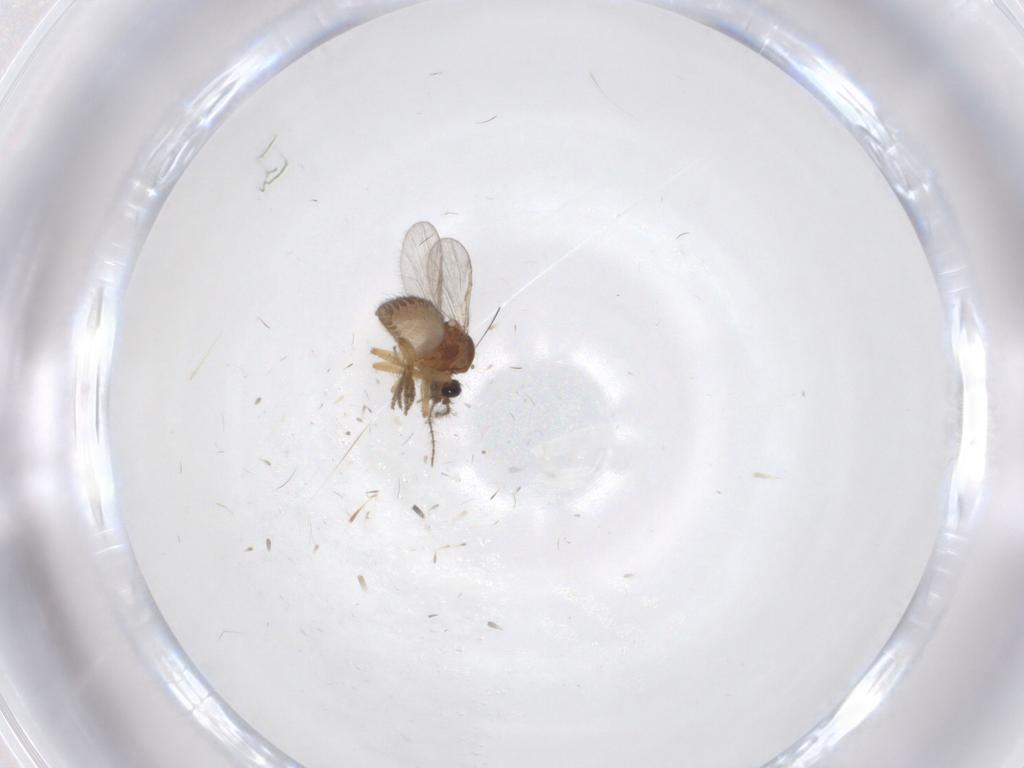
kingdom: Animalia
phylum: Arthropoda
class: Insecta
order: Diptera
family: Ceratopogonidae
